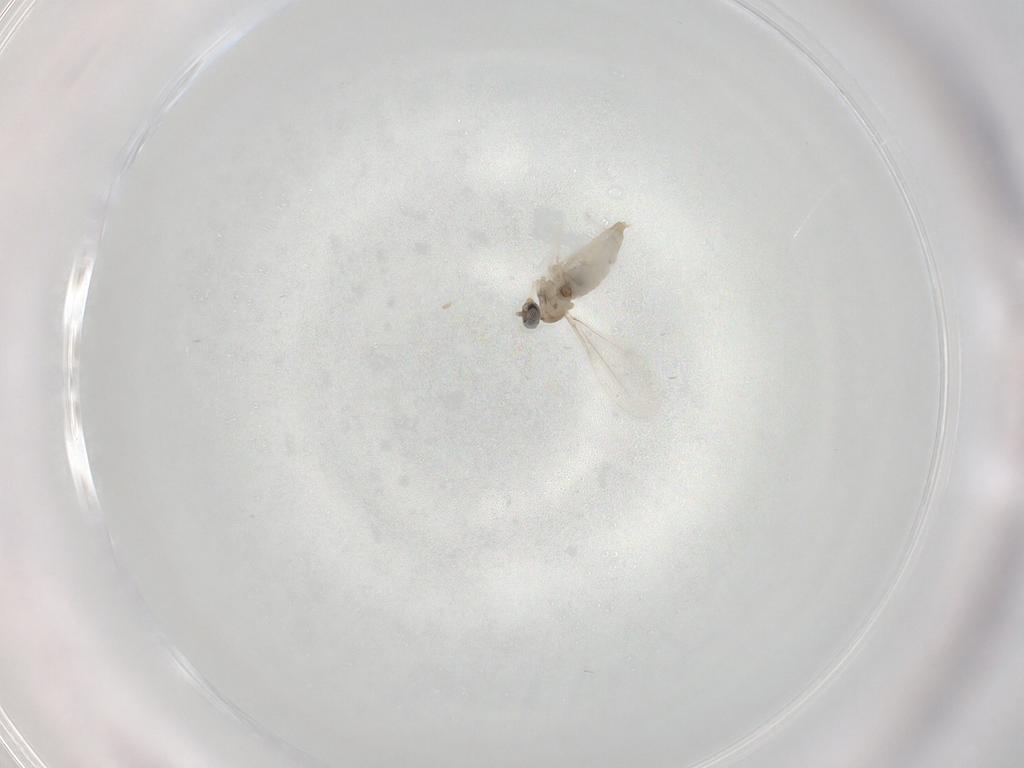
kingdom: Animalia
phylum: Arthropoda
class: Insecta
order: Diptera
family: Cecidomyiidae
